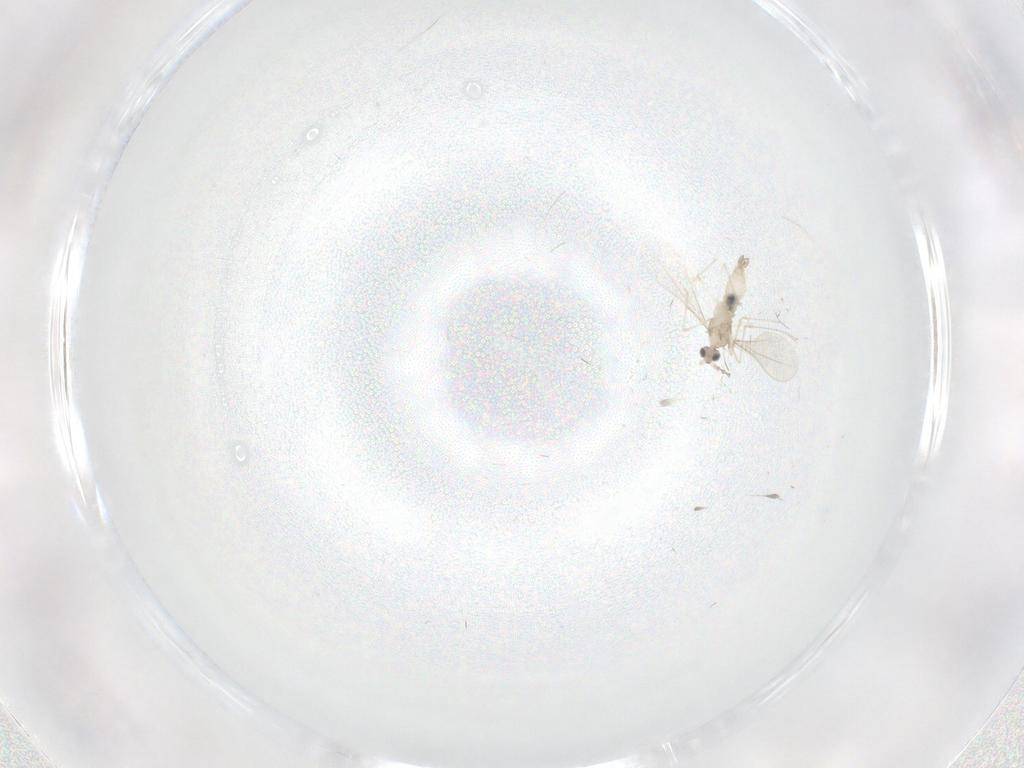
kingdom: Animalia
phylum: Arthropoda
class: Insecta
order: Diptera
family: Cecidomyiidae
